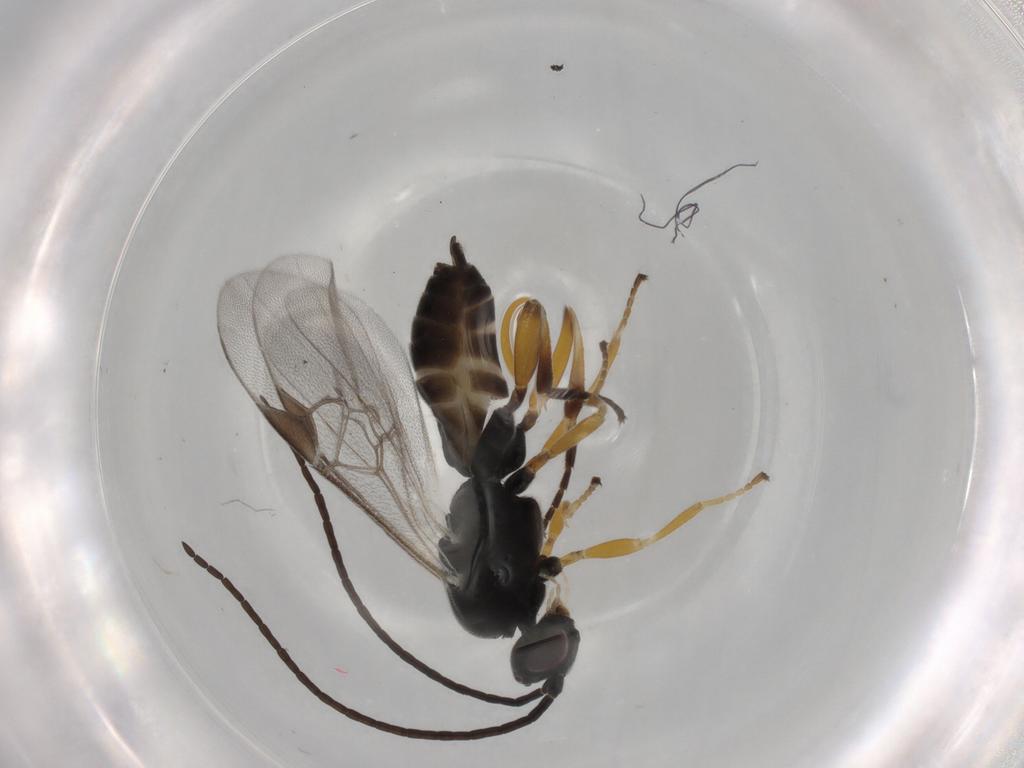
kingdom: Animalia
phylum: Arthropoda
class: Insecta
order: Hymenoptera
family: Braconidae
